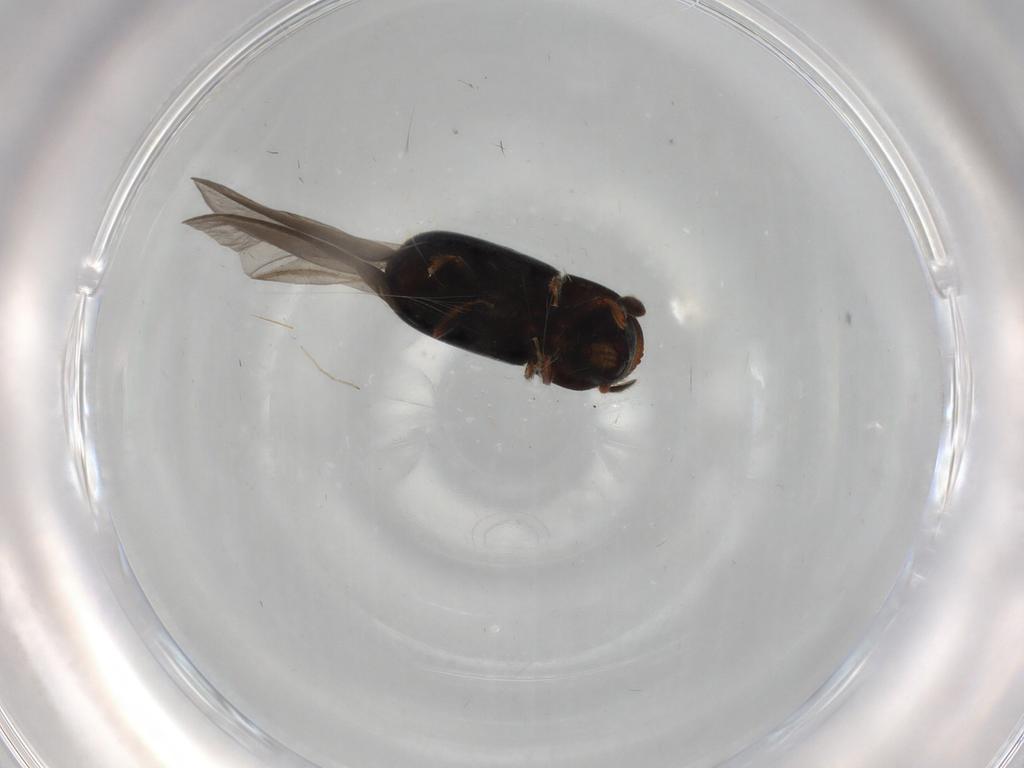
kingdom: Animalia
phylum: Arthropoda
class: Insecta
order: Coleoptera
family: Curculionidae
